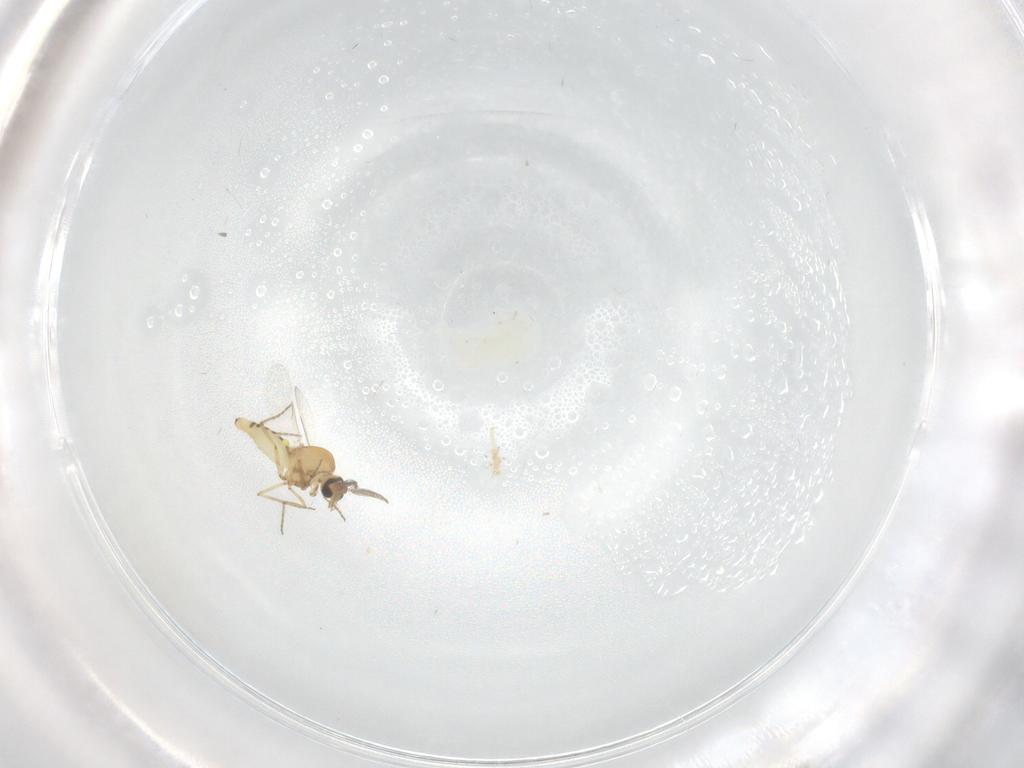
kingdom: Animalia
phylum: Arthropoda
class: Insecta
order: Diptera
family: Ceratopogonidae
